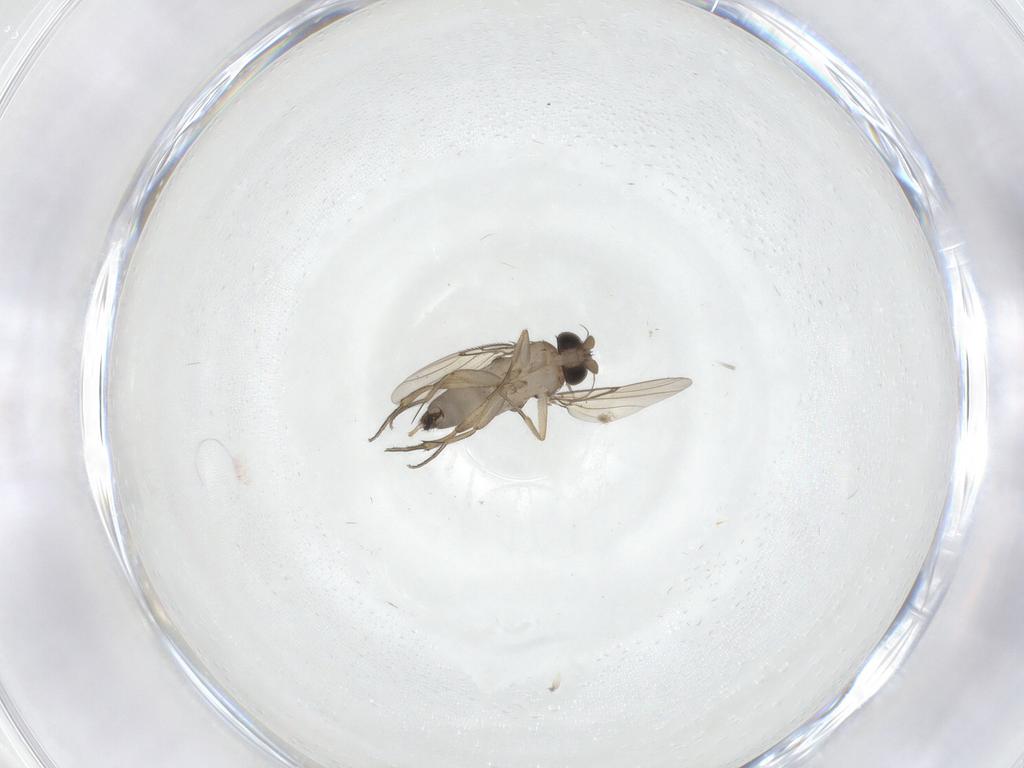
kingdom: Animalia
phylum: Arthropoda
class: Insecta
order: Diptera
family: Phoridae
